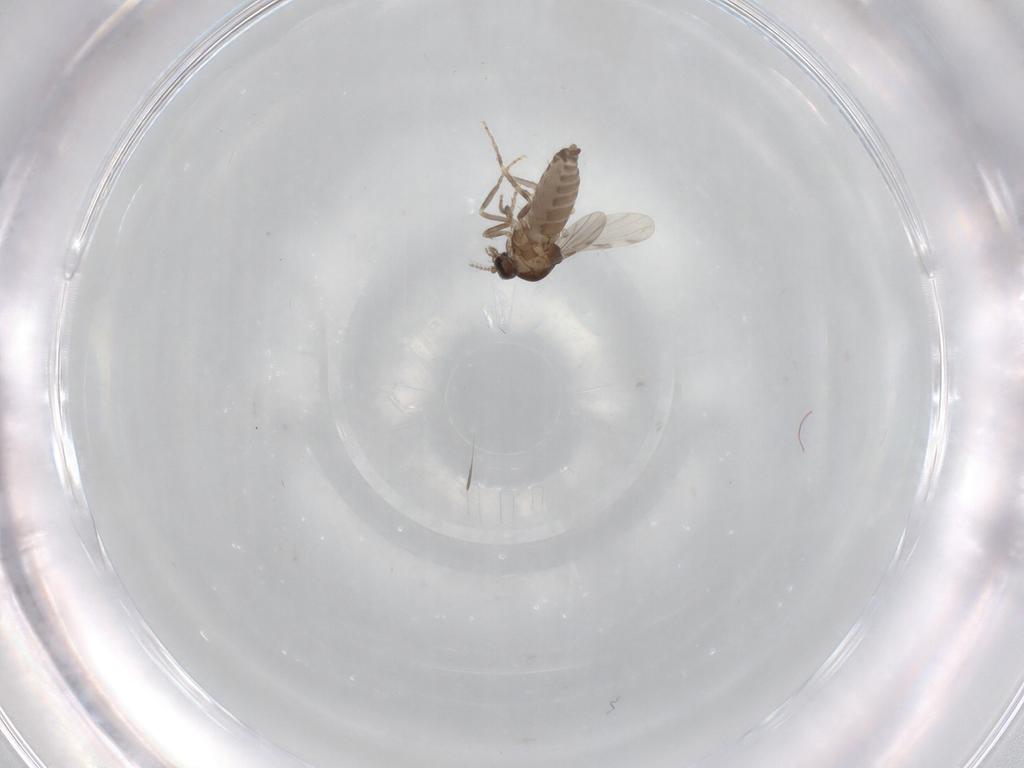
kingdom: Animalia
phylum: Arthropoda
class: Insecta
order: Diptera
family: Ceratopogonidae
